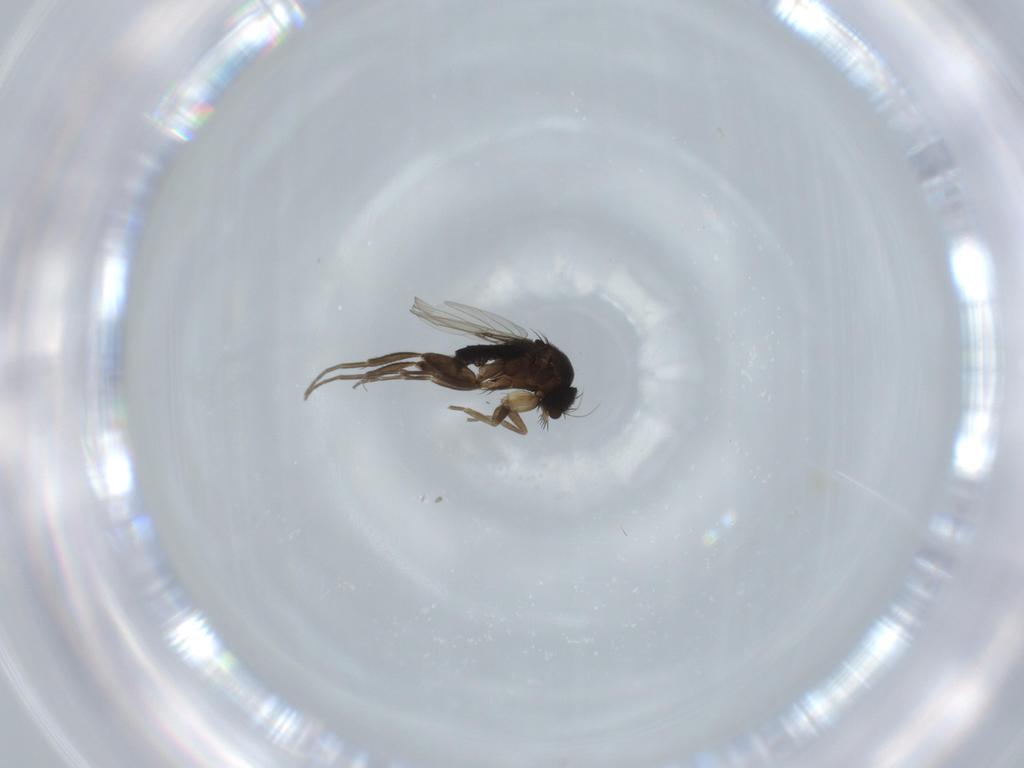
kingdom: Animalia
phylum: Arthropoda
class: Insecta
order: Diptera
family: Phoridae
